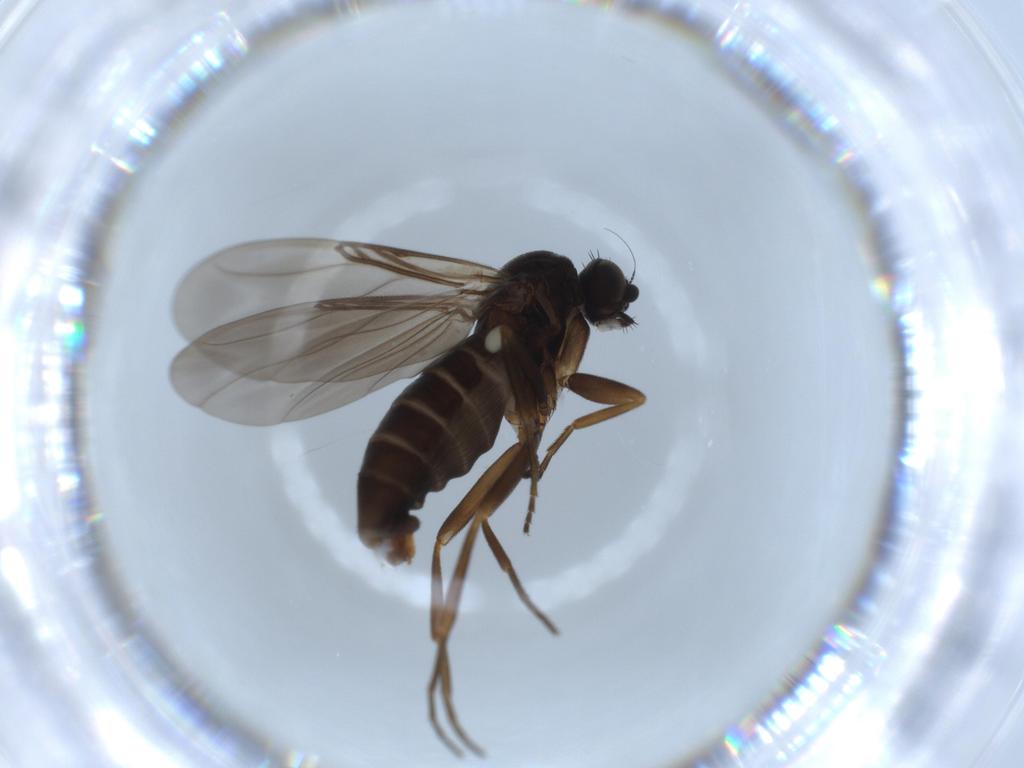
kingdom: Animalia
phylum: Arthropoda
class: Insecta
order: Diptera
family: Phoridae
